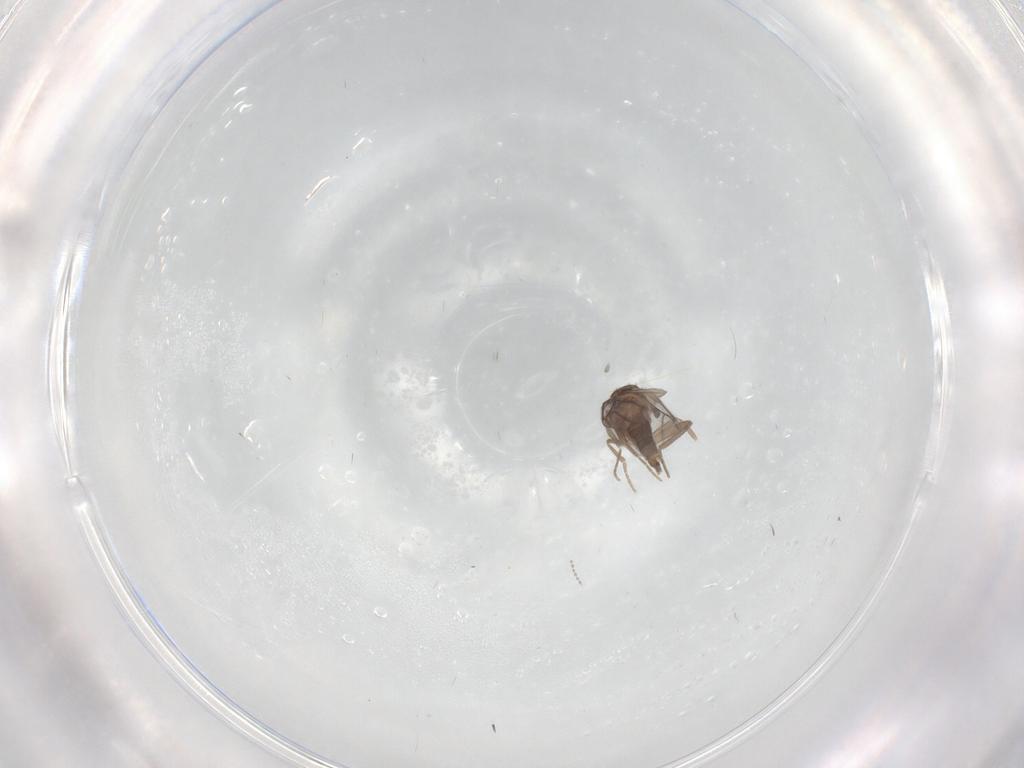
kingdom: Animalia
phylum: Arthropoda
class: Insecta
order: Diptera
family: Cecidomyiidae
